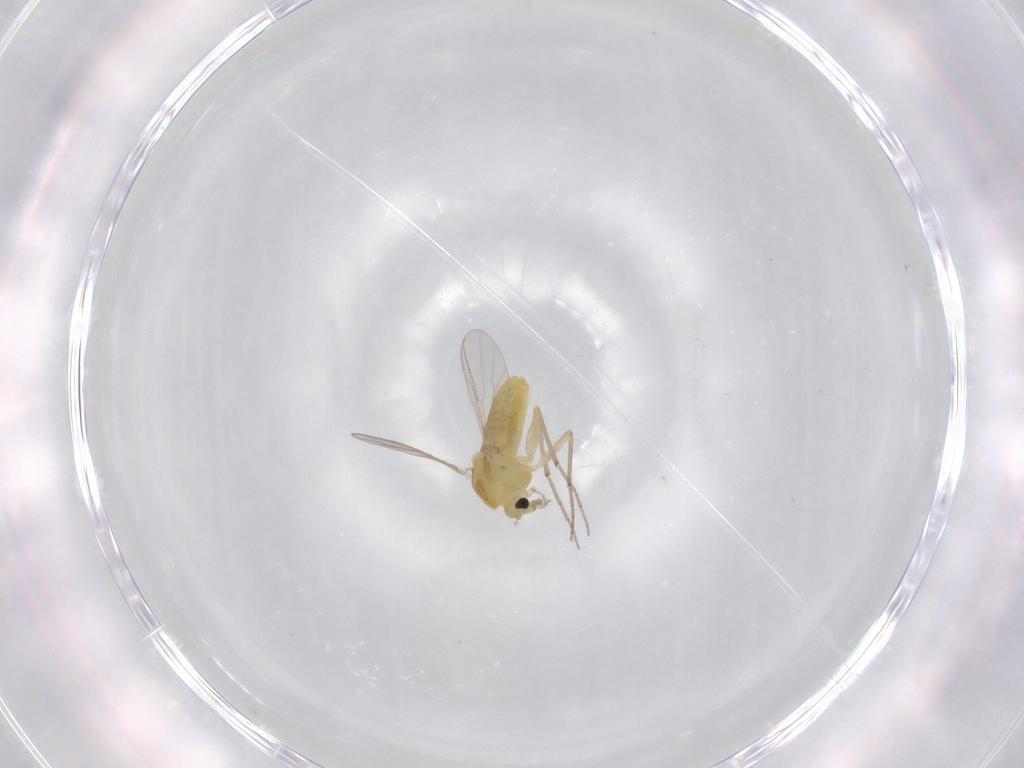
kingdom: Animalia
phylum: Arthropoda
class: Insecta
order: Diptera
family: Chironomidae
